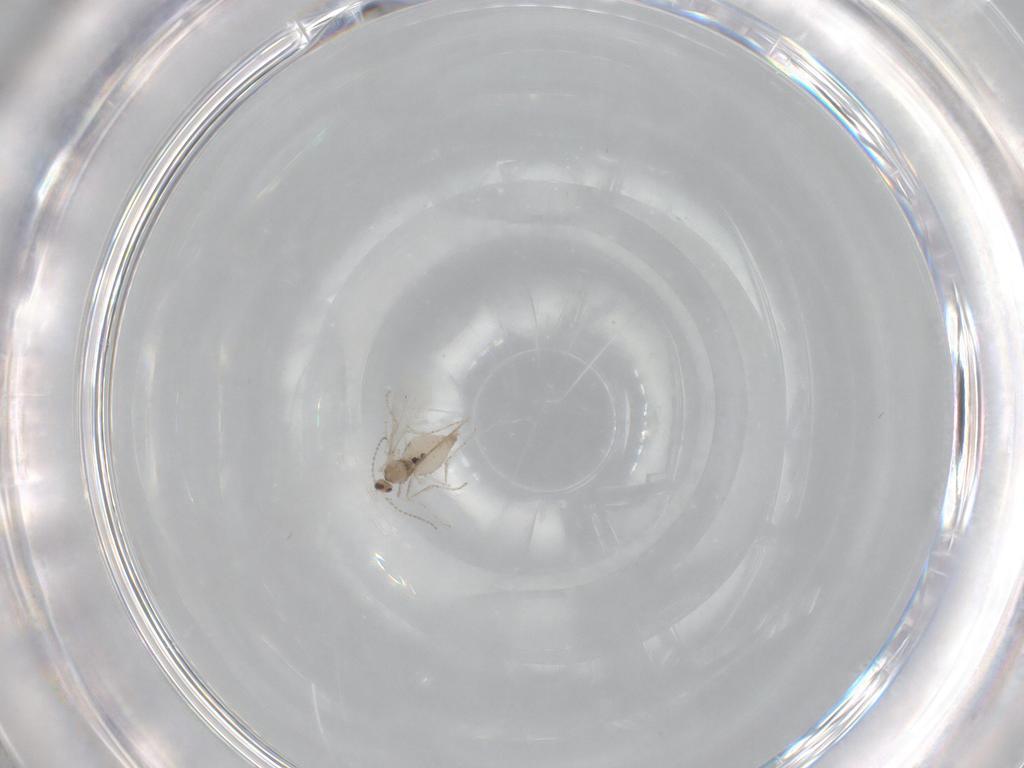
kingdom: Animalia
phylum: Arthropoda
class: Insecta
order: Diptera
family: Cecidomyiidae
